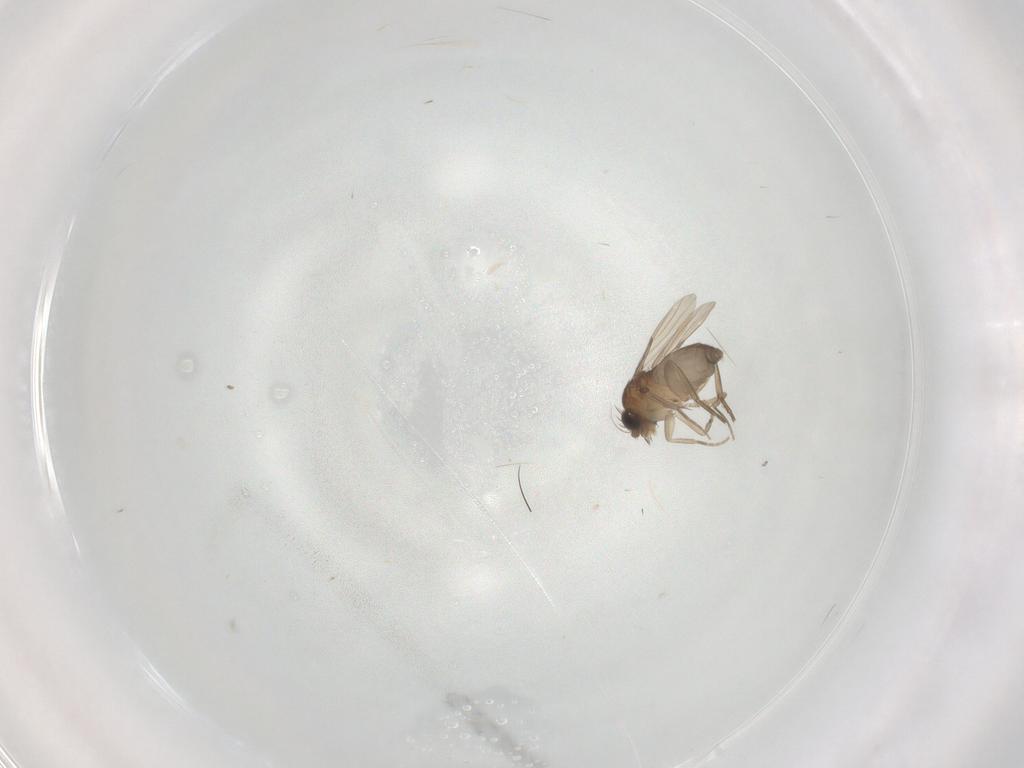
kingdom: Animalia
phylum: Arthropoda
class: Insecta
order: Diptera
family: Phoridae
